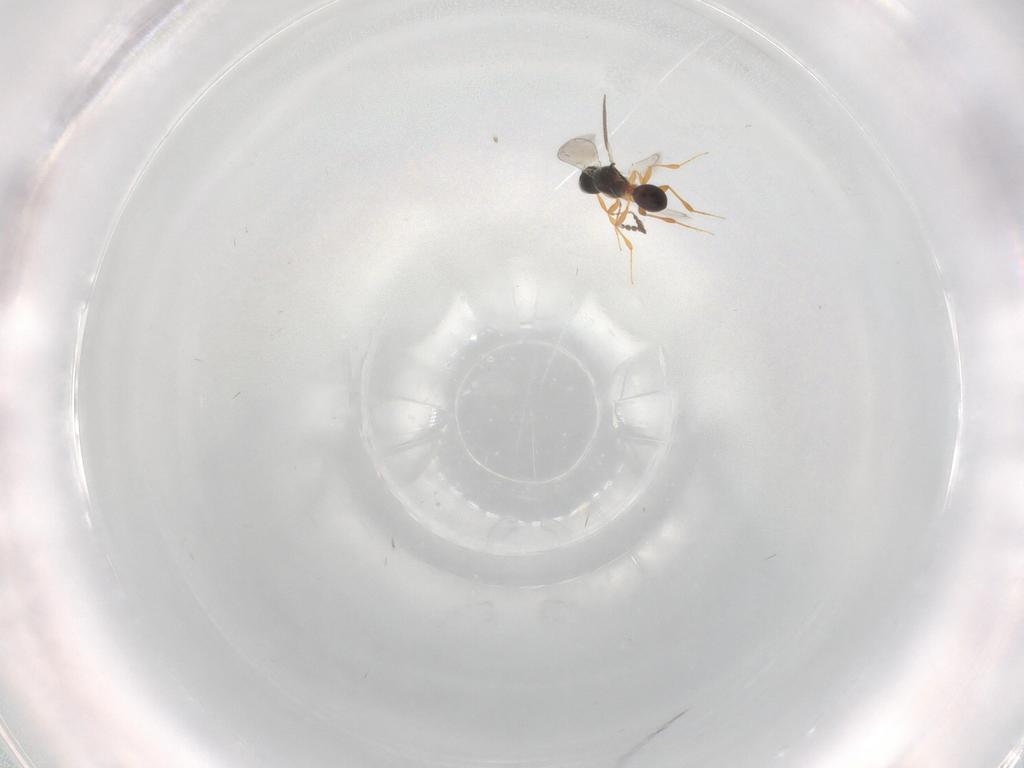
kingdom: Animalia
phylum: Arthropoda
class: Insecta
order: Hymenoptera
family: Platygastridae
